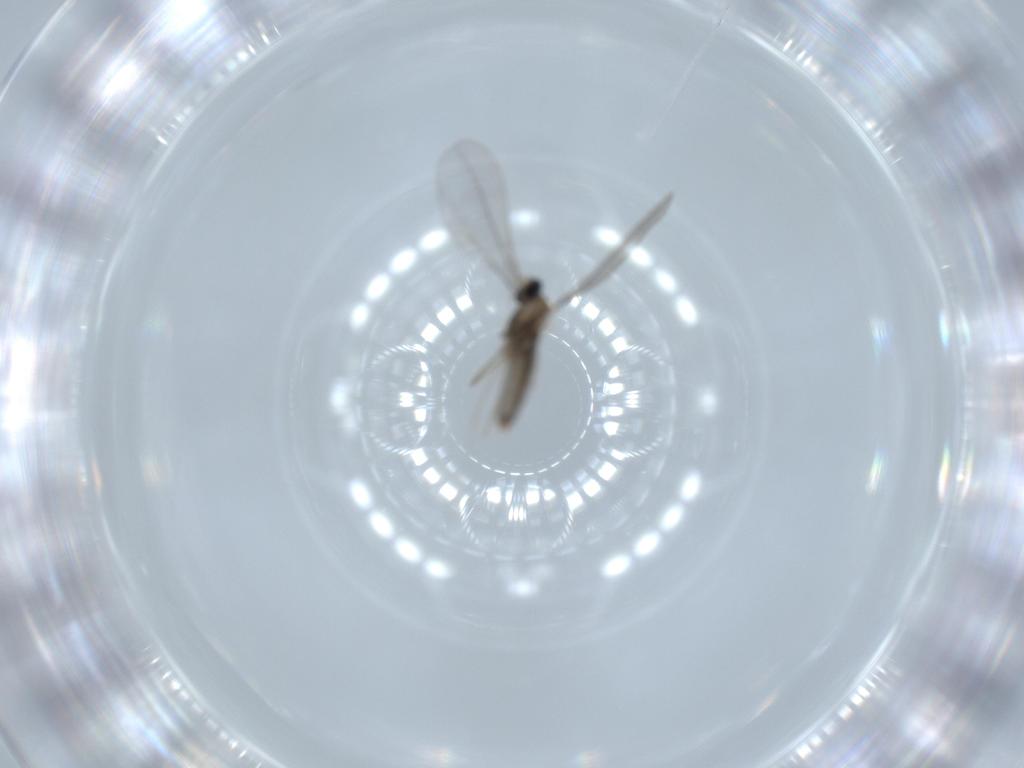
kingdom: Animalia
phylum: Arthropoda
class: Insecta
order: Diptera
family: Cecidomyiidae
